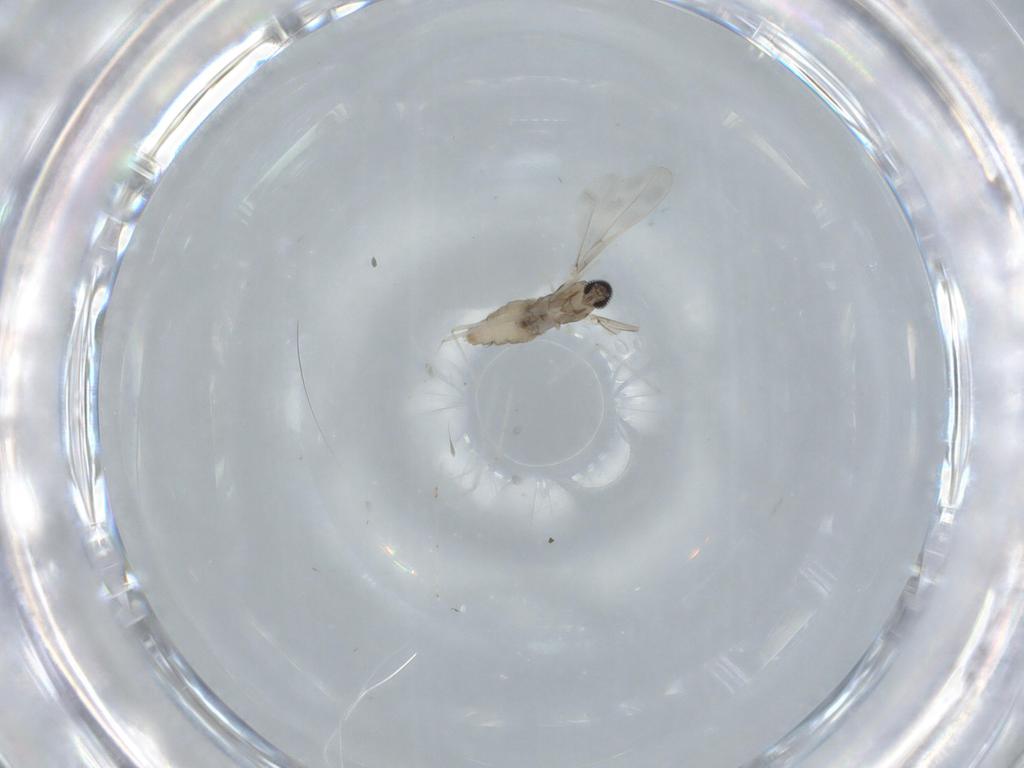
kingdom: Animalia
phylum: Arthropoda
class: Insecta
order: Diptera
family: Cecidomyiidae
